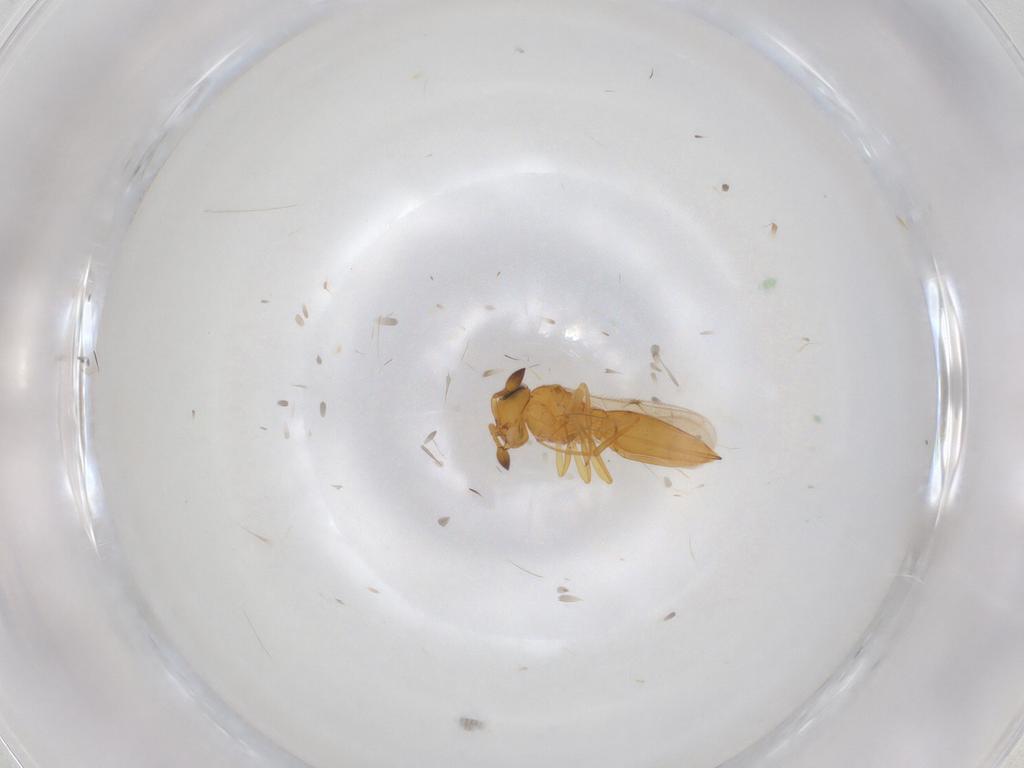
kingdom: Animalia
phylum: Arthropoda
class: Insecta
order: Hymenoptera
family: Scelionidae
